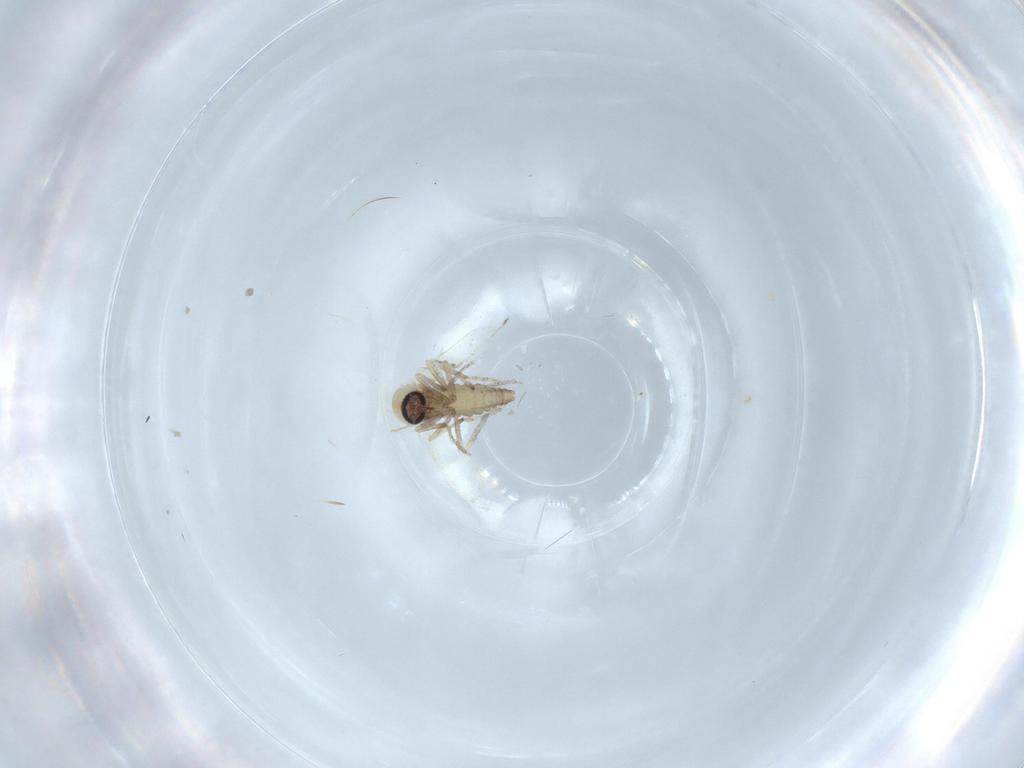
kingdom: Animalia
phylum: Arthropoda
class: Insecta
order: Diptera
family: Ceratopogonidae
